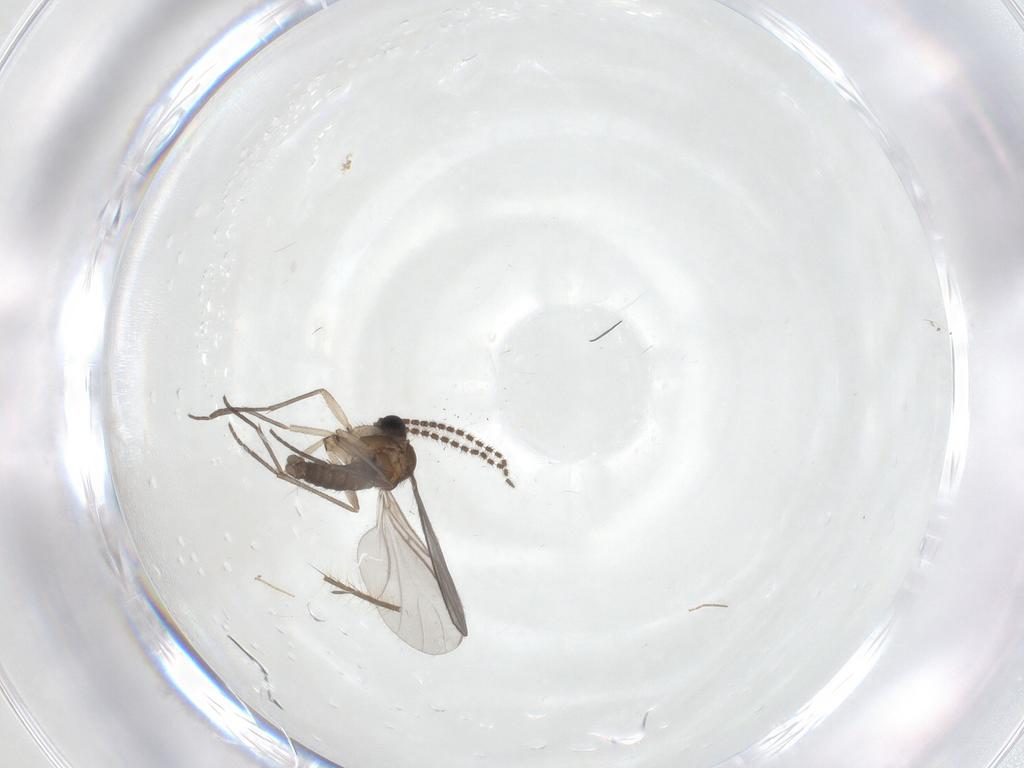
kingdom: Animalia
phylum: Arthropoda
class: Insecta
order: Diptera
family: Sciaridae
